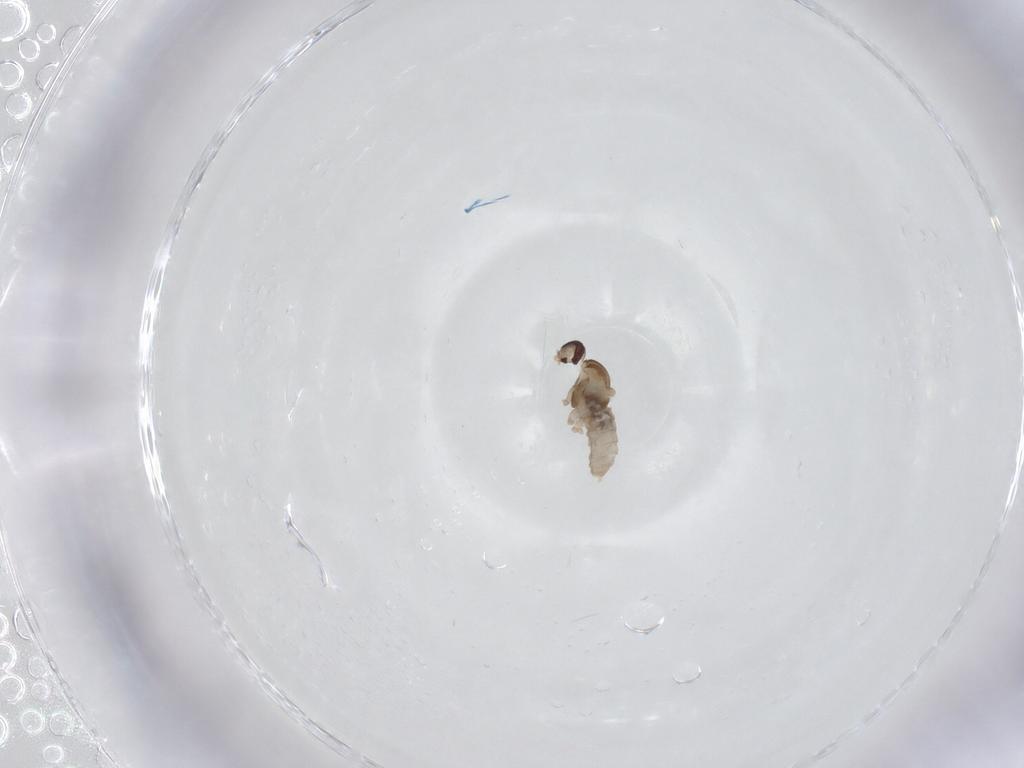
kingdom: Animalia
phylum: Arthropoda
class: Insecta
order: Diptera
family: Cecidomyiidae
